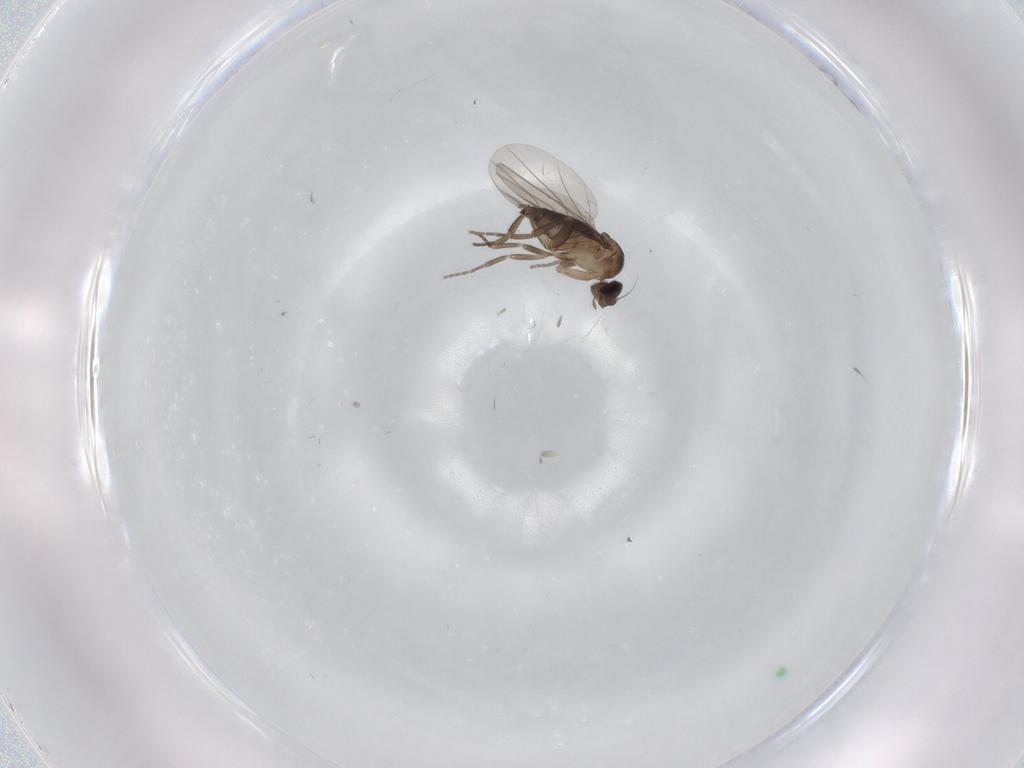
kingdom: Animalia
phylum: Arthropoda
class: Insecta
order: Diptera
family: Phoridae
